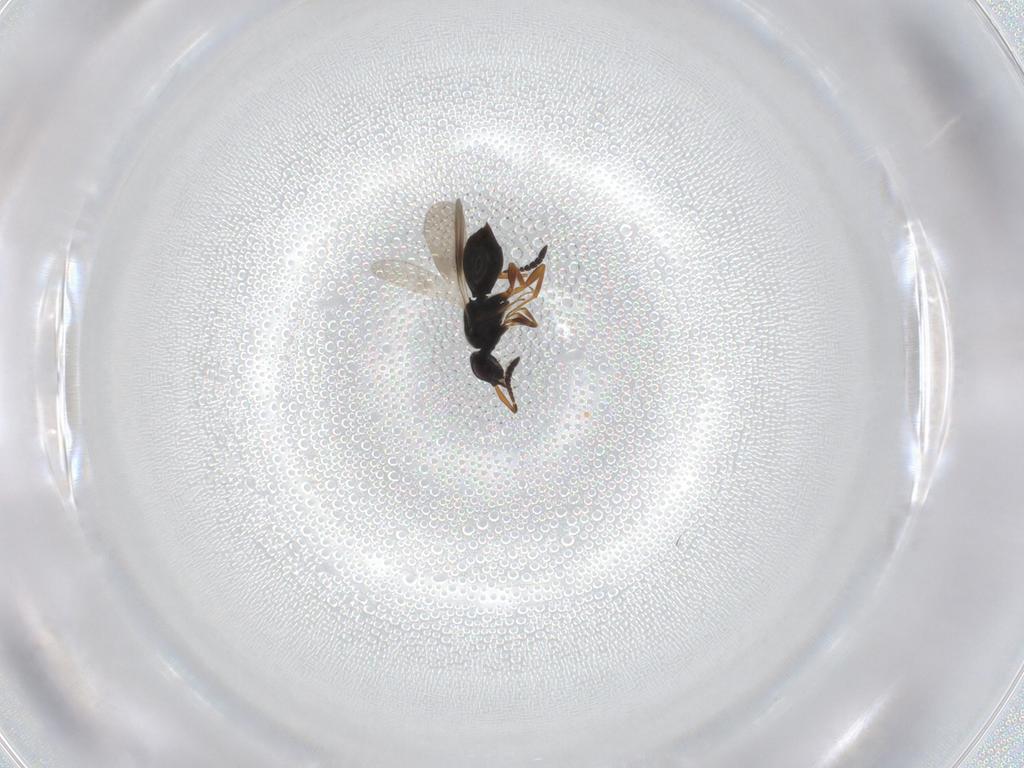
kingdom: Animalia
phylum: Arthropoda
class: Insecta
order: Hymenoptera
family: Scelionidae
